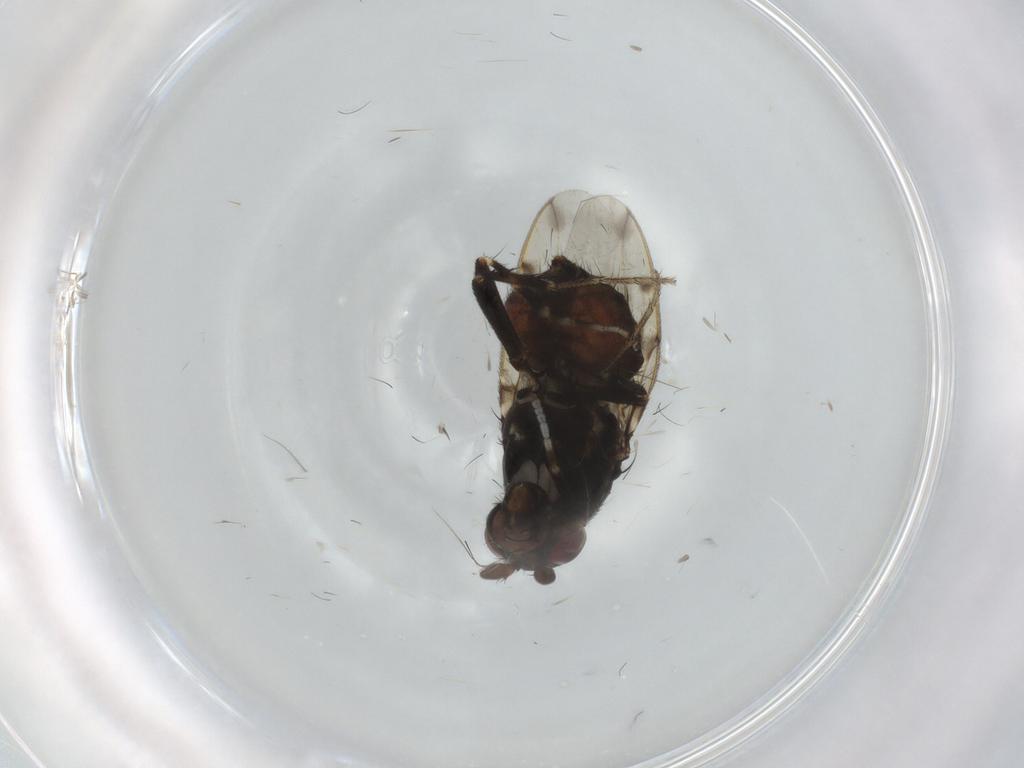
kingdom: Animalia
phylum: Arthropoda
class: Insecta
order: Diptera
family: Sphaeroceridae
